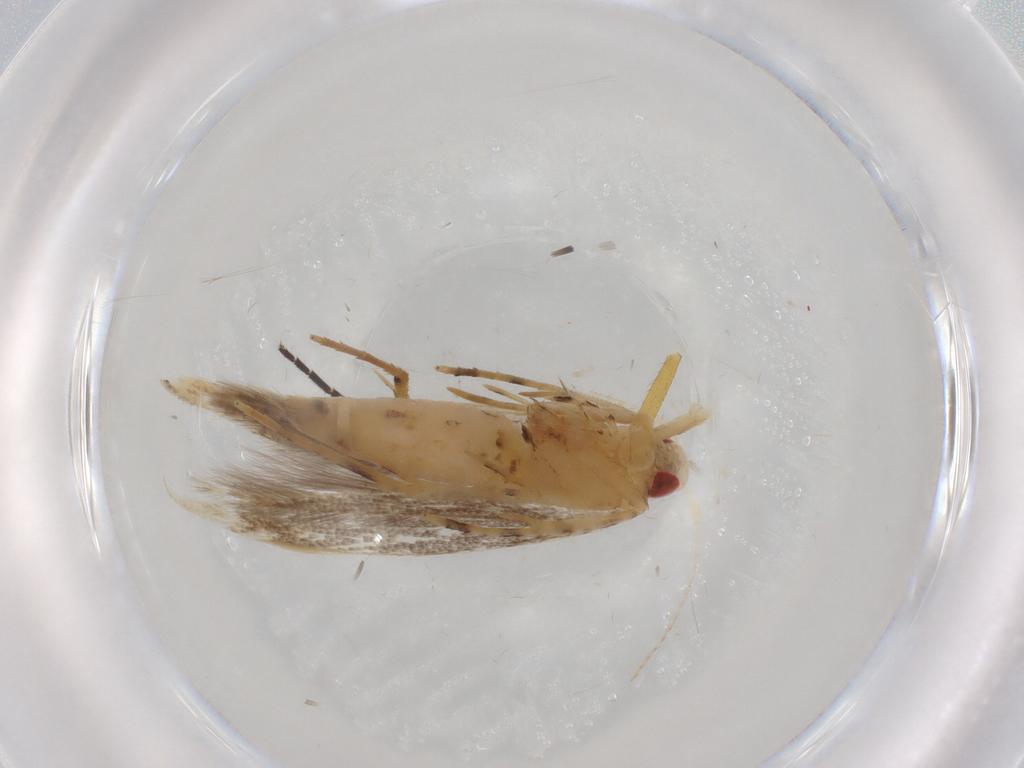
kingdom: Animalia
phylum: Arthropoda
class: Insecta
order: Lepidoptera
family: Cosmopterigidae
